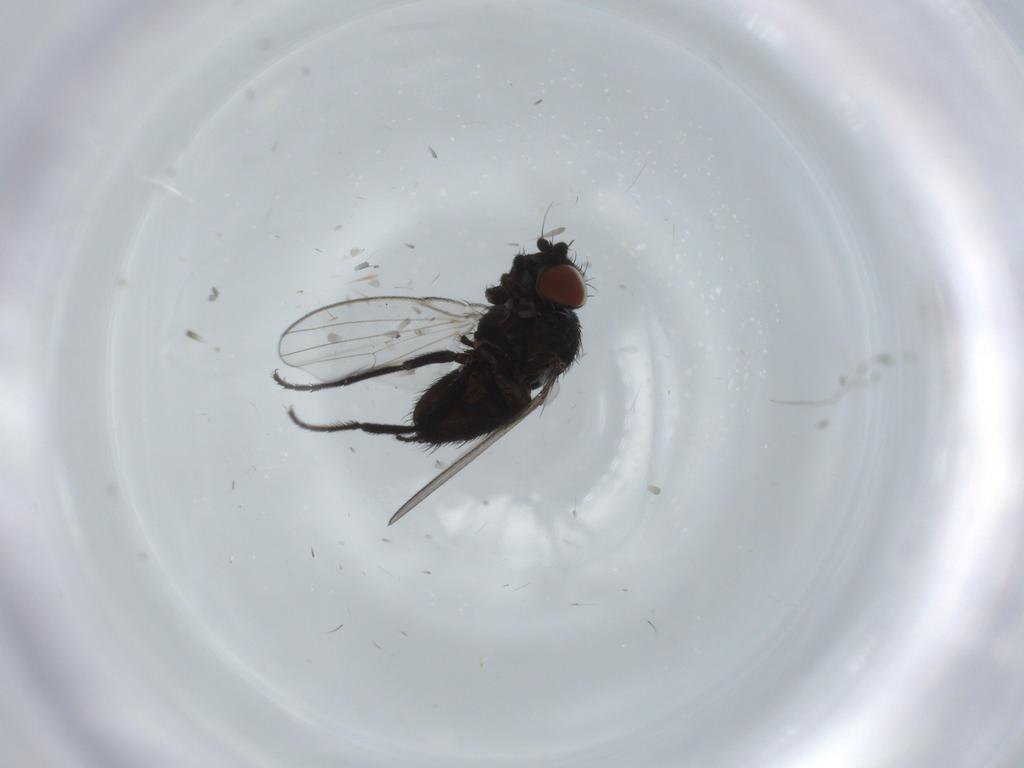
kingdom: Animalia
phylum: Arthropoda
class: Insecta
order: Diptera
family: Milichiidae
